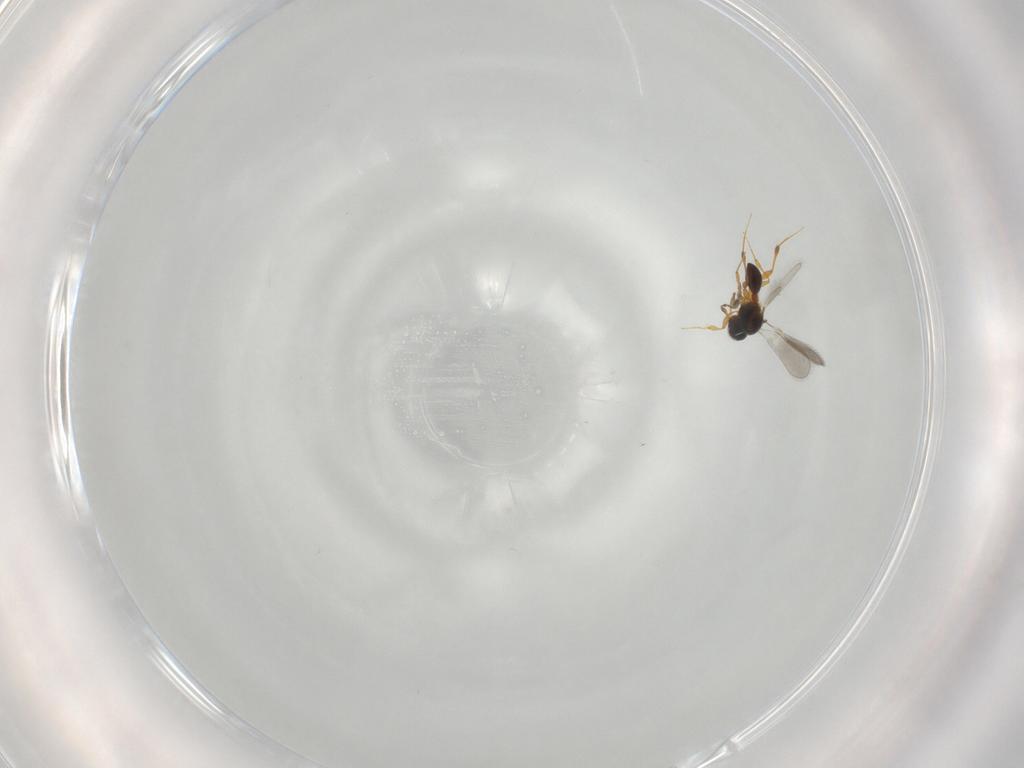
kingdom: Animalia
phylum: Arthropoda
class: Insecta
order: Hymenoptera
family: Platygastridae
